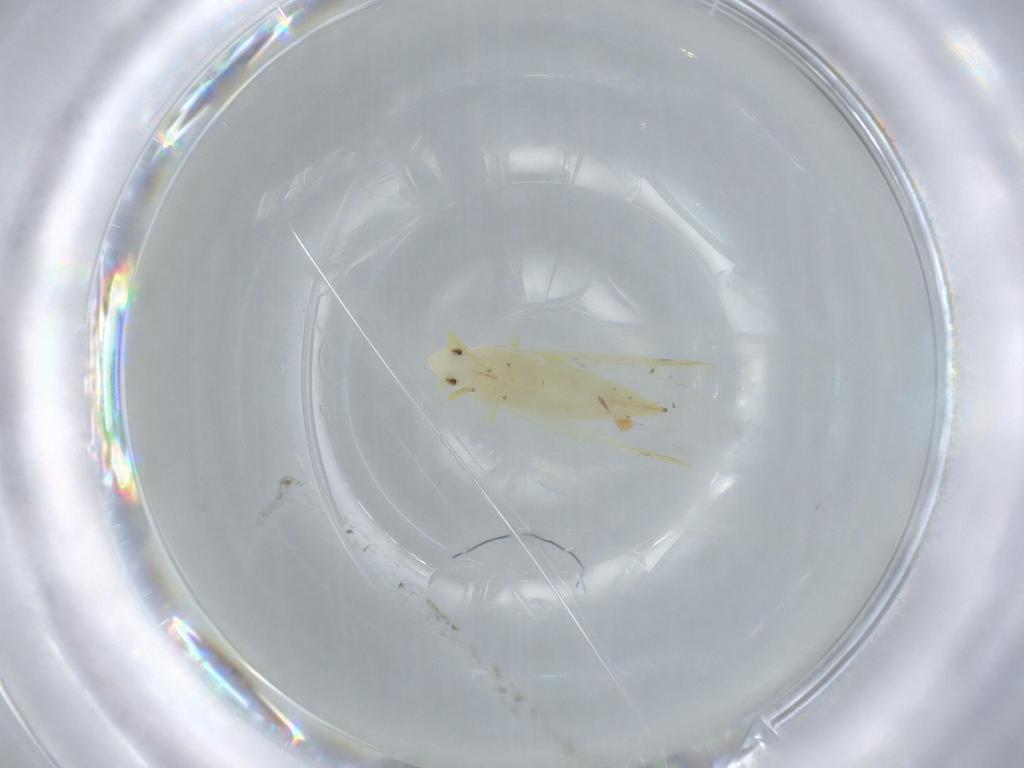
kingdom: Animalia
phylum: Arthropoda
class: Insecta
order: Hemiptera
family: Cicadellidae
